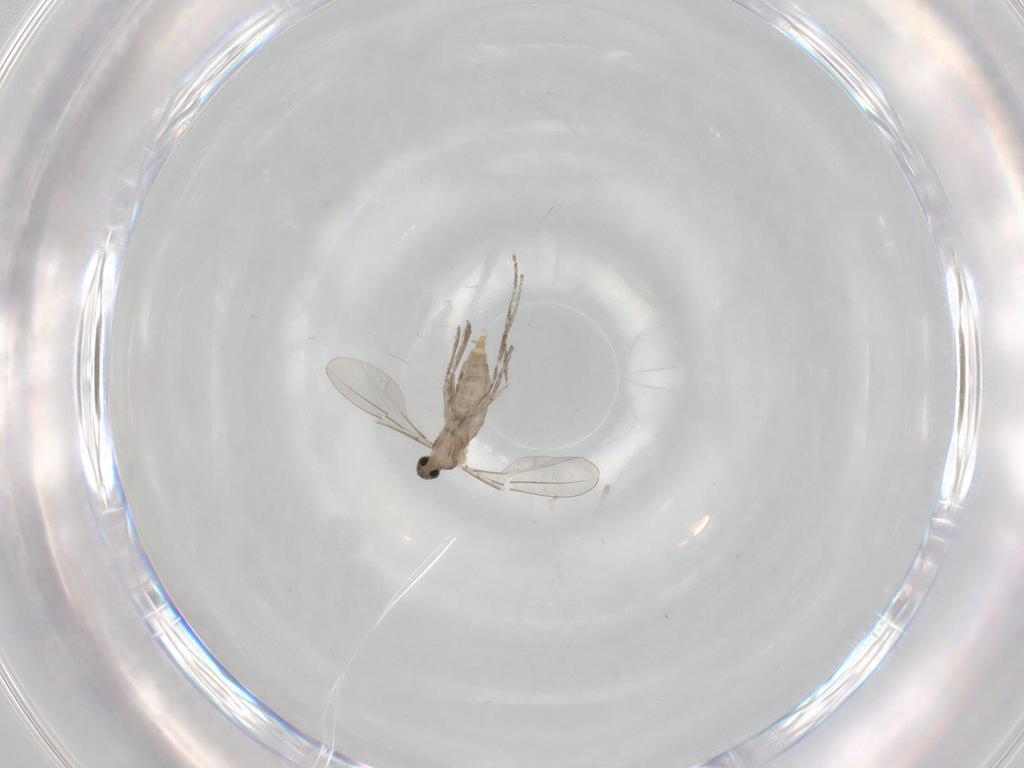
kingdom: Animalia
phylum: Arthropoda
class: Insecta
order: Diptera
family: Cecidomyiidae
